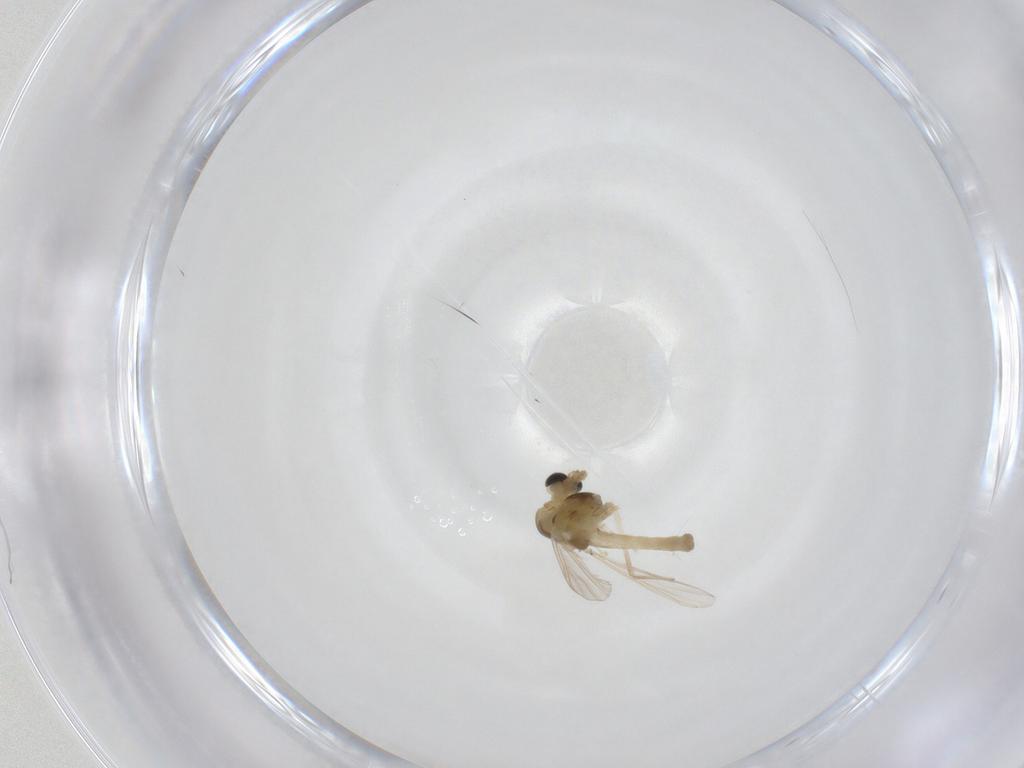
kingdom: Animalia
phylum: Arthropoda
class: Insecta
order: Diptera
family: Chironomidae
